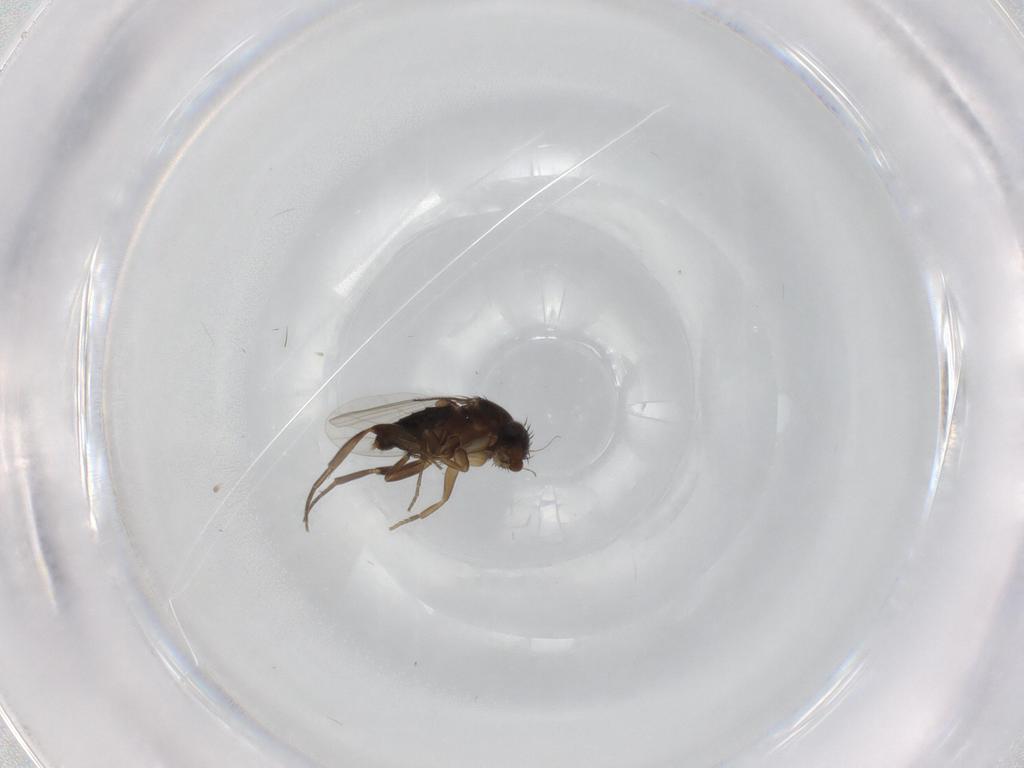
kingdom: Animalia
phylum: Arthropoda
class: Insecta
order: Diptera
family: Phoridae
